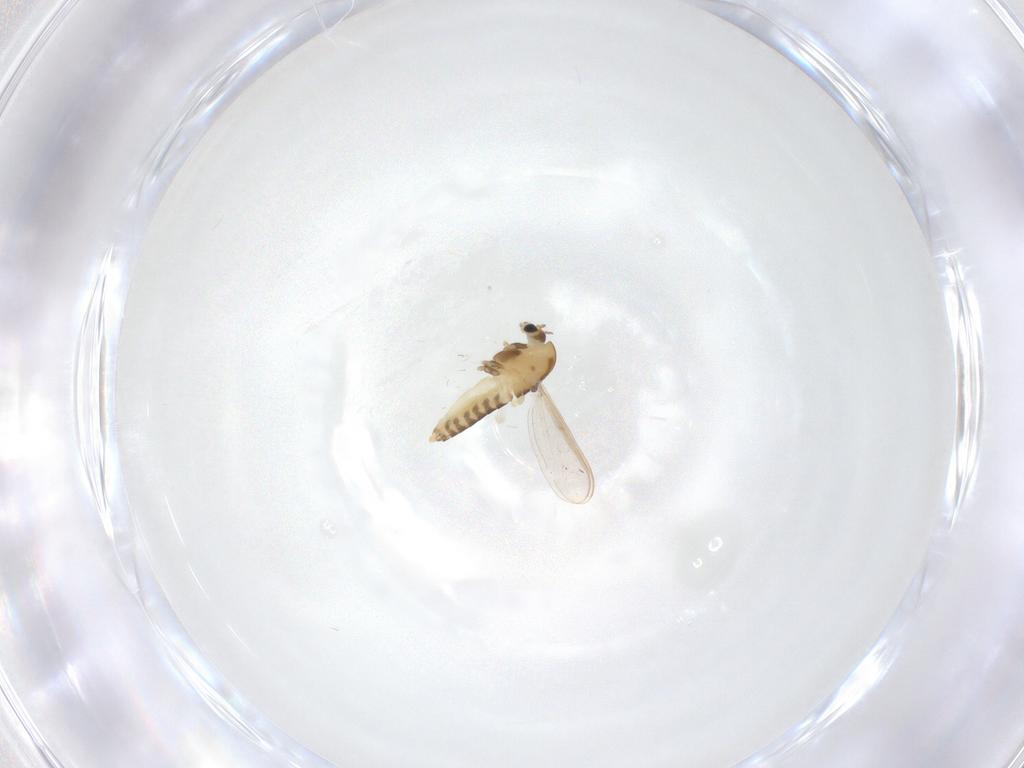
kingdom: Animalia
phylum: Arthropoda
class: Insecta
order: Diptera
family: Chironomidae
